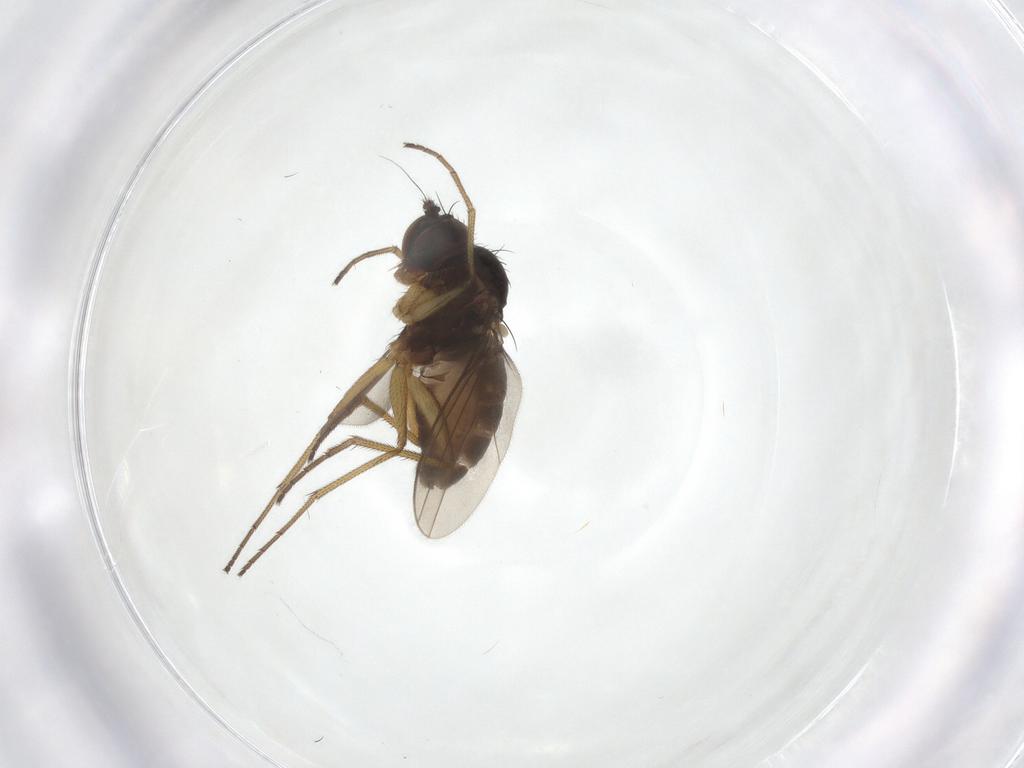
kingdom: Animalia
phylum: Arthropoda
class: Insecta
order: Diptera
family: Dolichopodidae
